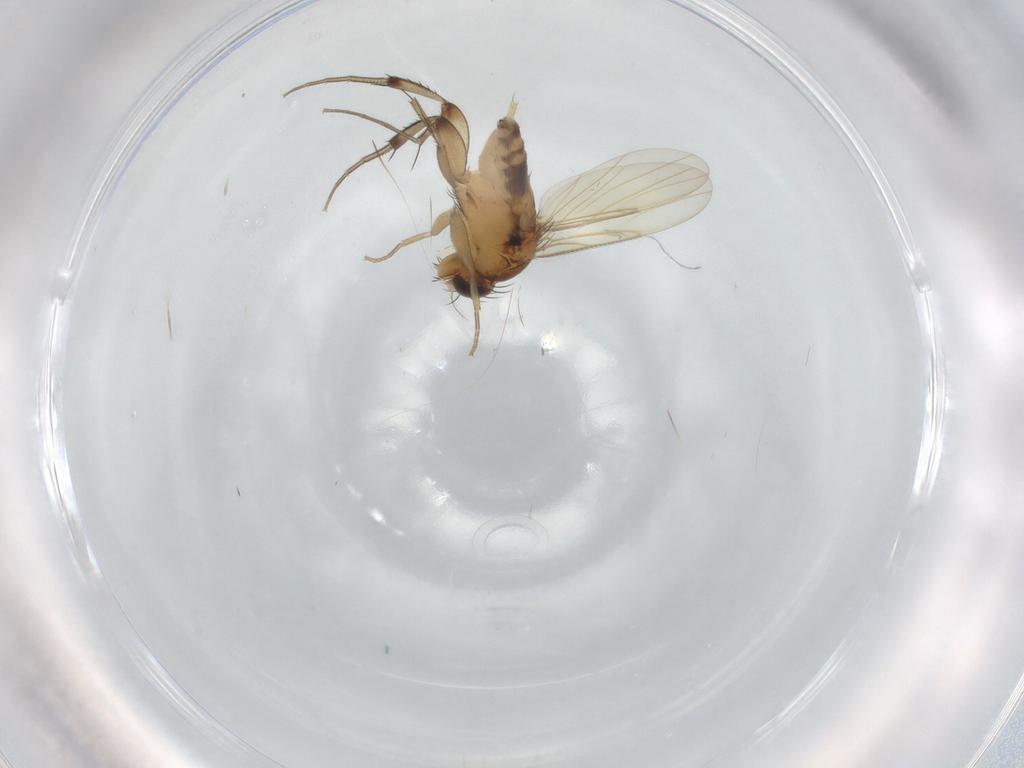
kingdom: Animalia
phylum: Arthropoda
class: Insecta
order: Diptera
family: Phoridae
